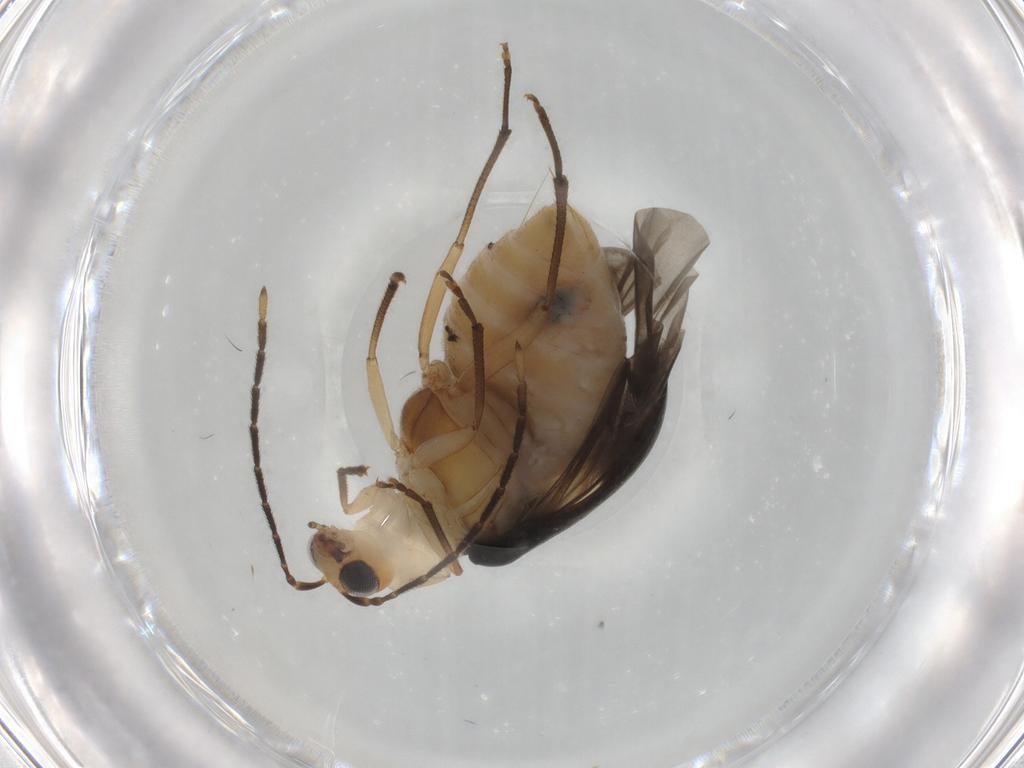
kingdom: Animalia
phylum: Arthropoda
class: Insecta
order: Coleoptera
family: Chrysomelidae
